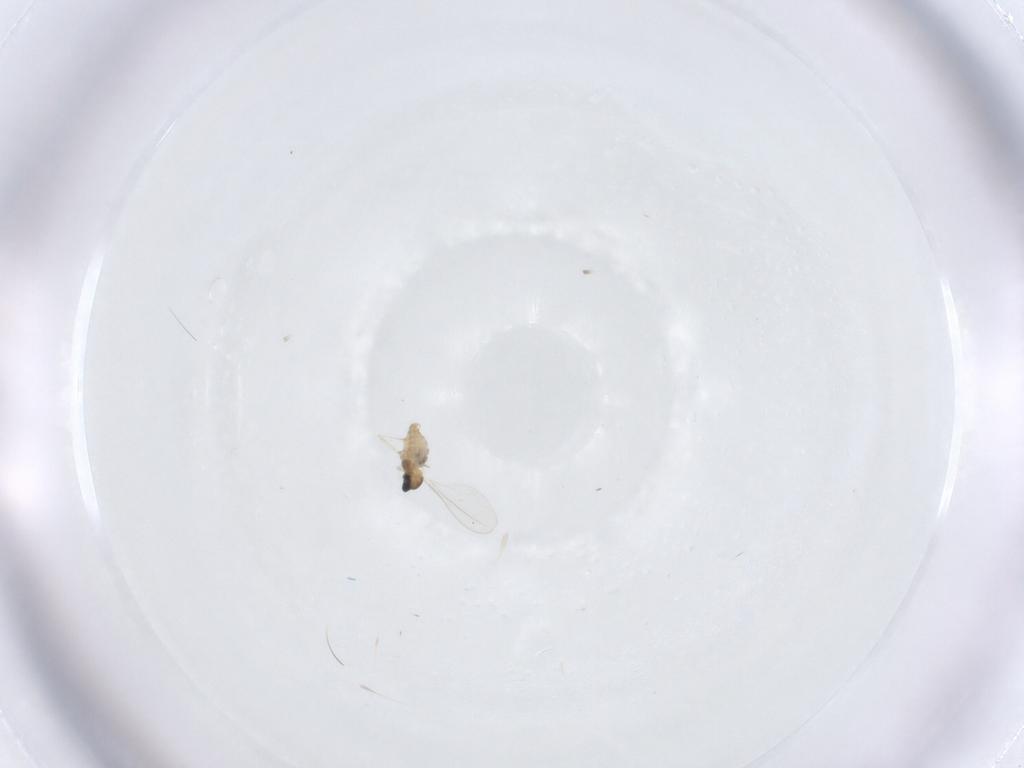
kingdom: Animalia
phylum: Arthropoda
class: Insecta
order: Diptera
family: Cecidomyiidae
